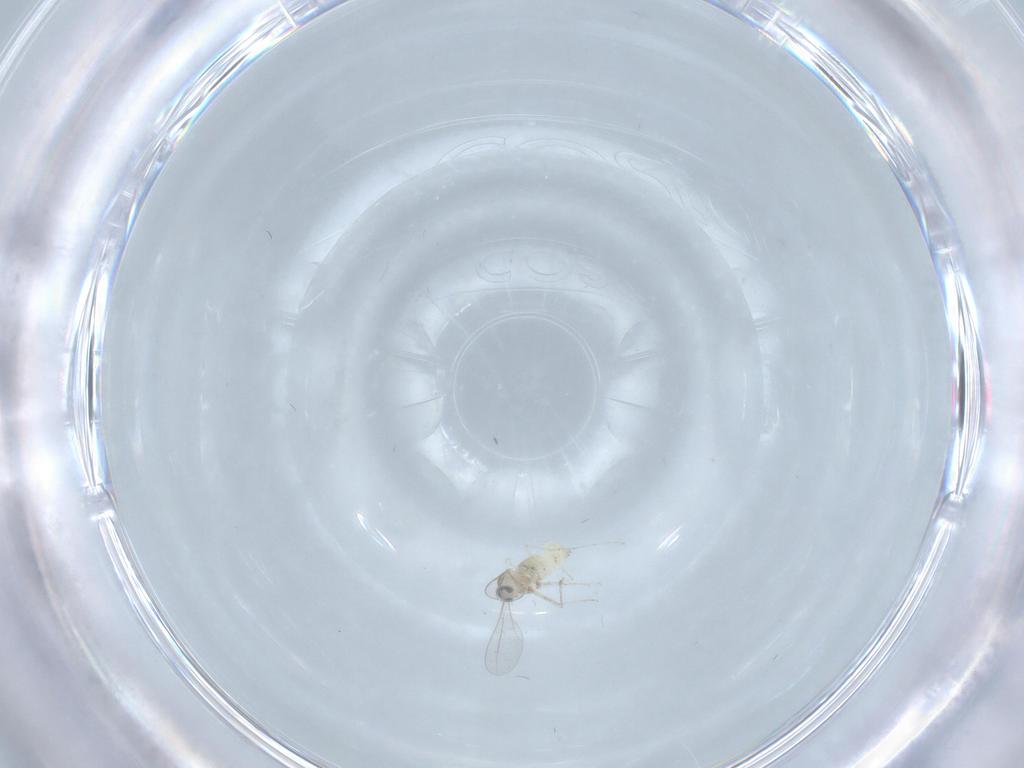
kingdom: Animalia
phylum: Arthropoda
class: Insecta
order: Diptera
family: Cecidomyiidae
